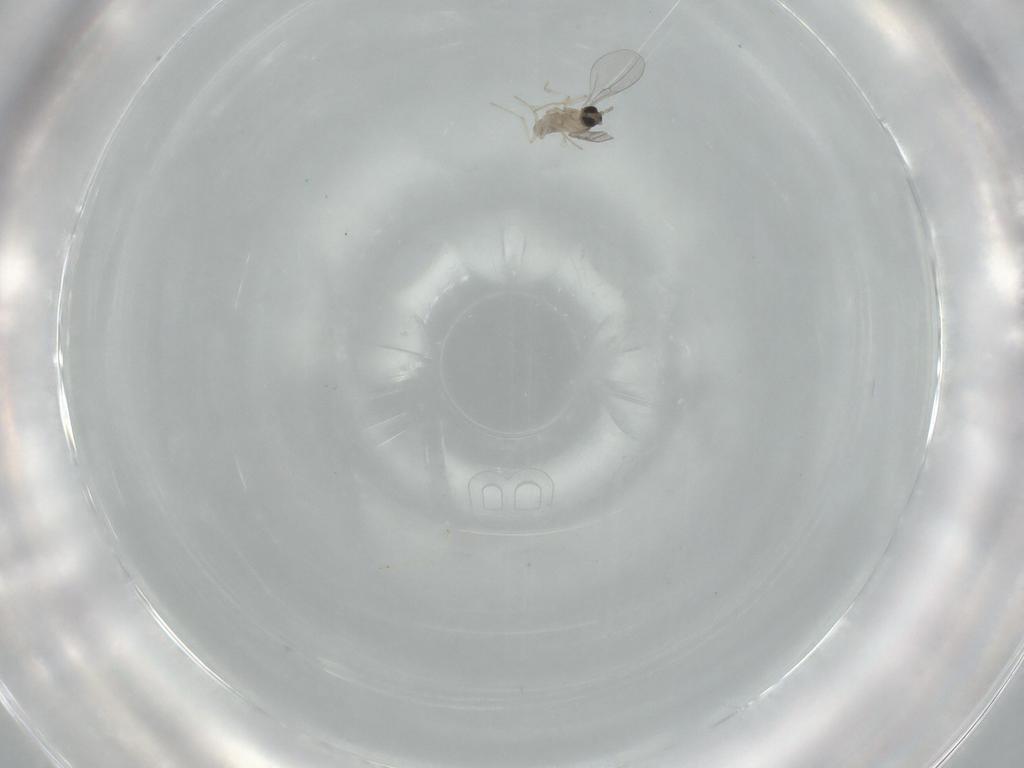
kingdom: Animalia
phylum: Arthropoda
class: Insecta
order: Diptera
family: Cecidomyiidae
